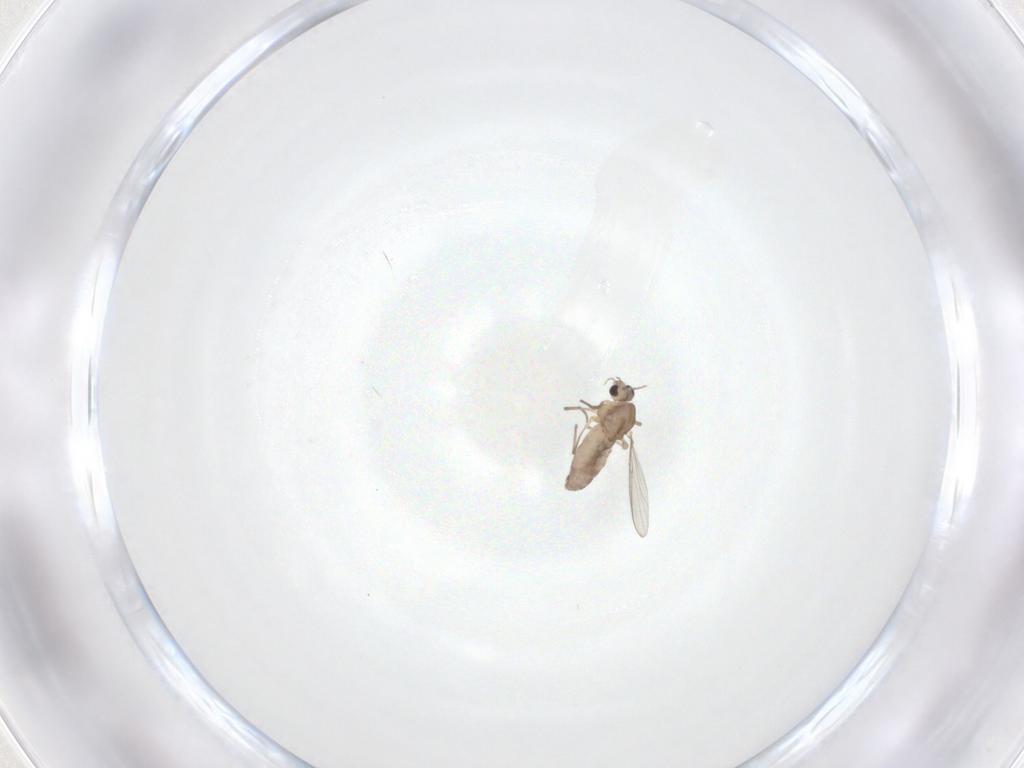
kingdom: Animalia
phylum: Arthropoda
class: Insecta
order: Diptera
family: Chironomidae
